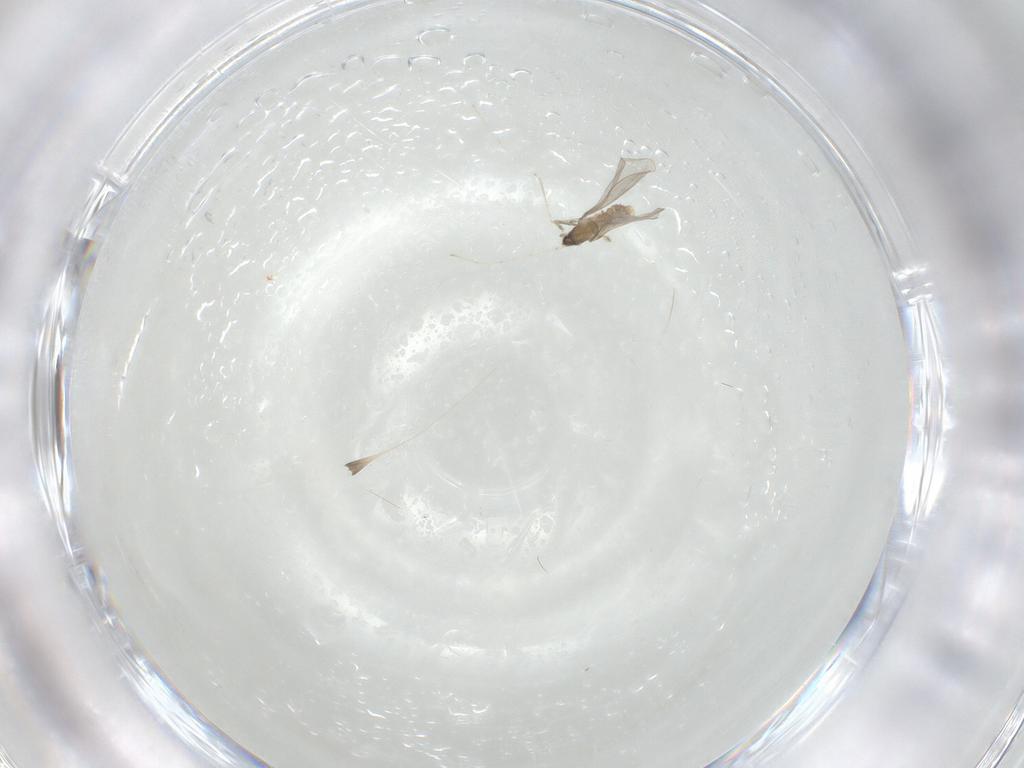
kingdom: Animalia
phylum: Arthropoda
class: Insecta
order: Diptera
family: Cecidomyiidae
